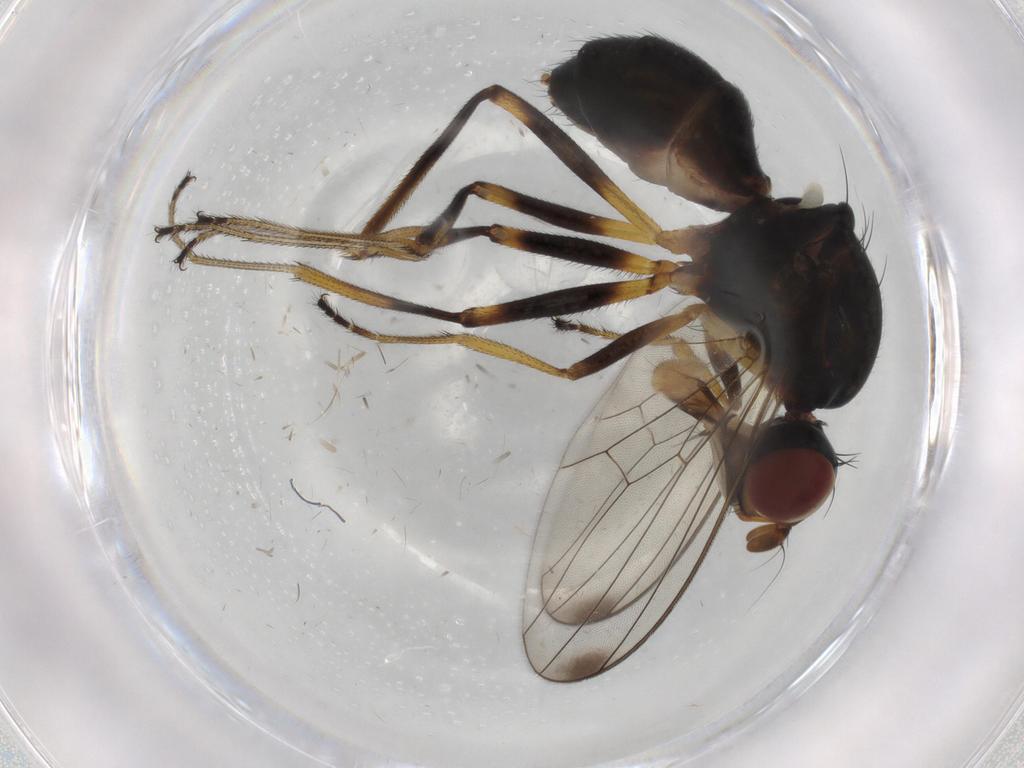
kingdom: Animalia
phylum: Arthropoda
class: Insecta
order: Diptera
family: Sepsidae
